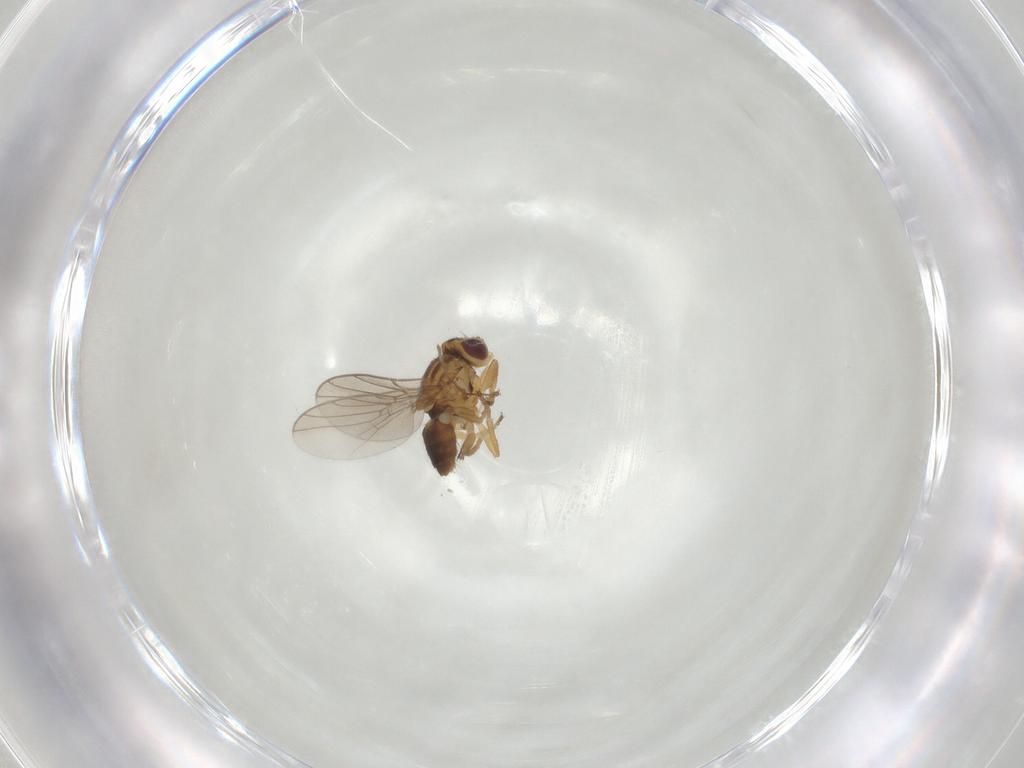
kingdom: Animalia
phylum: Arthropoda
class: Insecta
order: Diptera
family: Chloropidae
